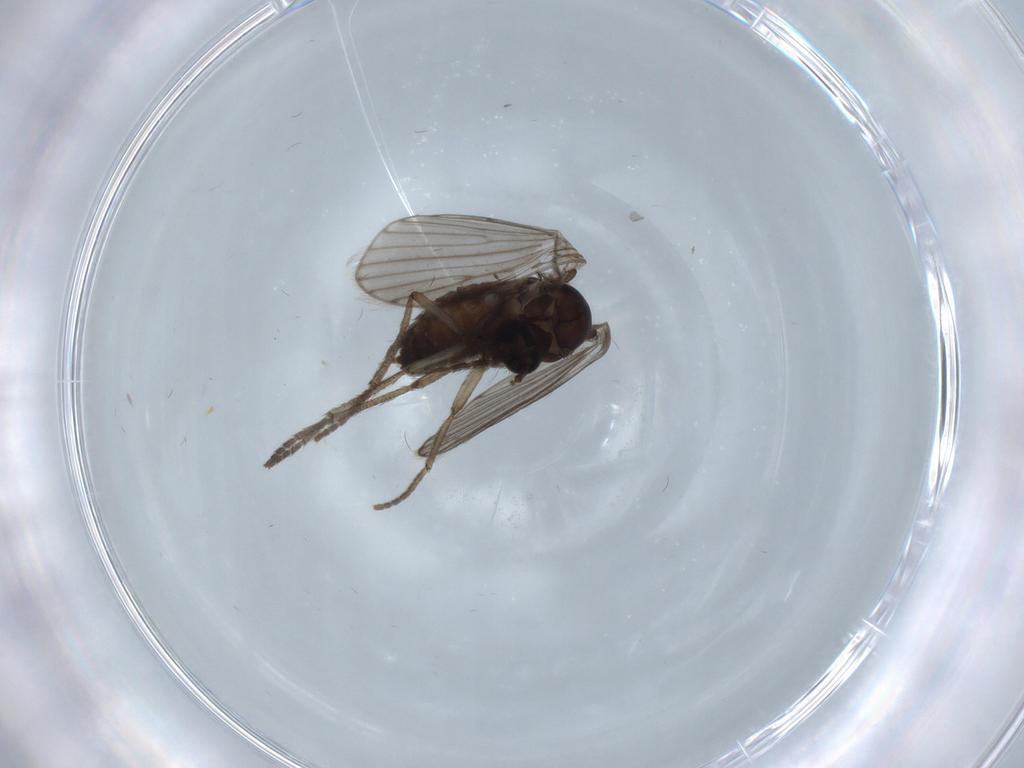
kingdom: Animalia
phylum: Arthropoda
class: Insecta
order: Diptera
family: Psychodidae
